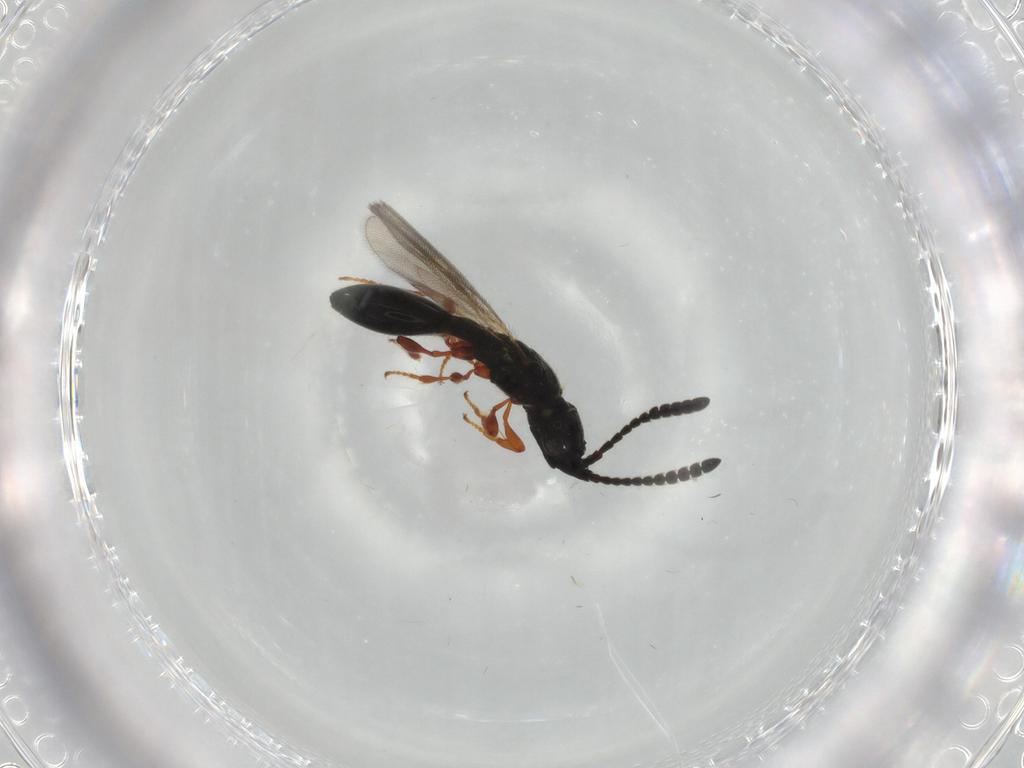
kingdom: Animalia
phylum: Arthropoda
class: Insecta
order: Hymenoptera
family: Diapriidae
